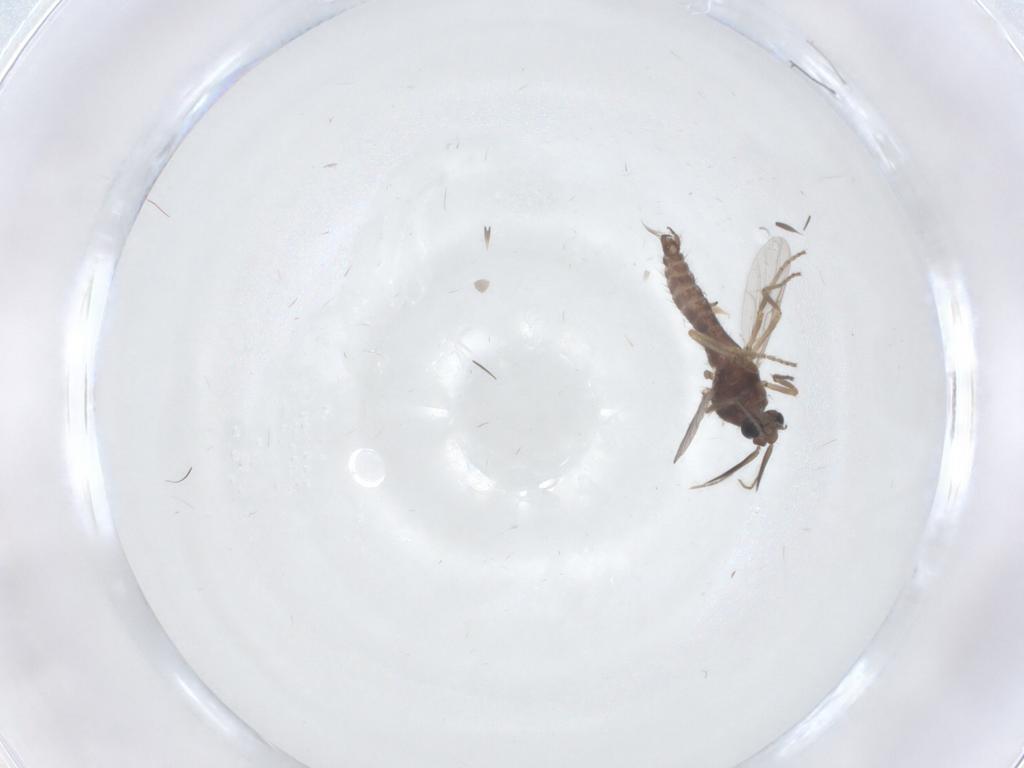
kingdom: Animalia
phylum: Arthropoda
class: Insecta
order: Diptera
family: Ceratopogonidae
